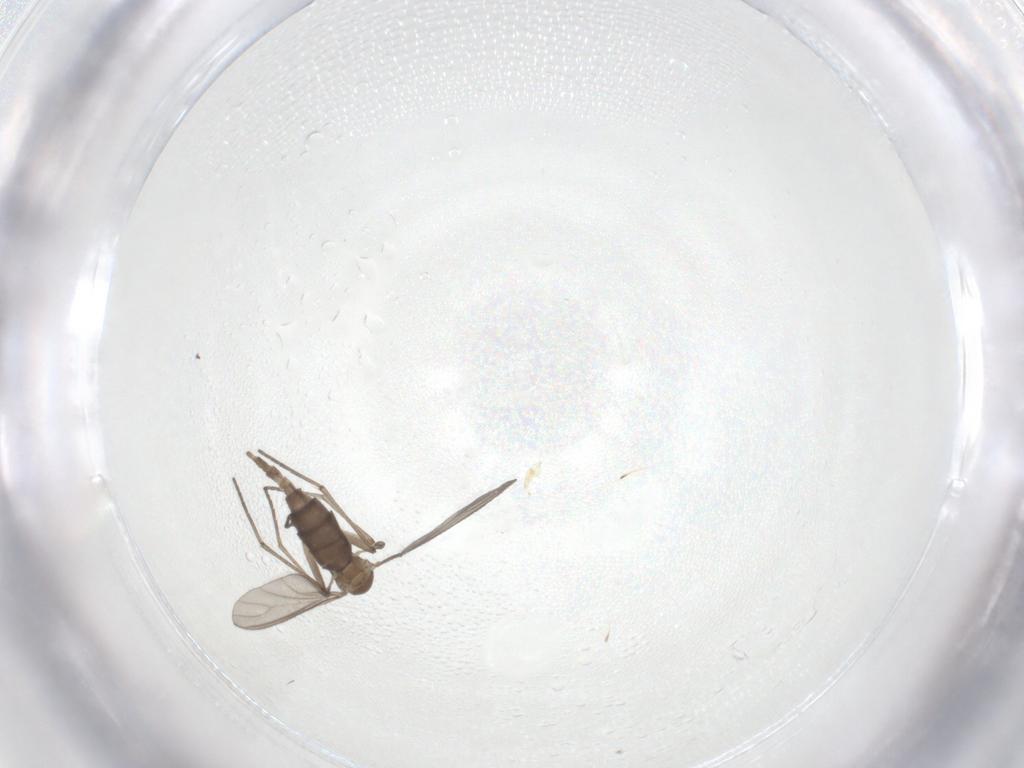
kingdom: Animalia
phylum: Arthropoda
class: Insecta
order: Diptera
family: Sciaridae
